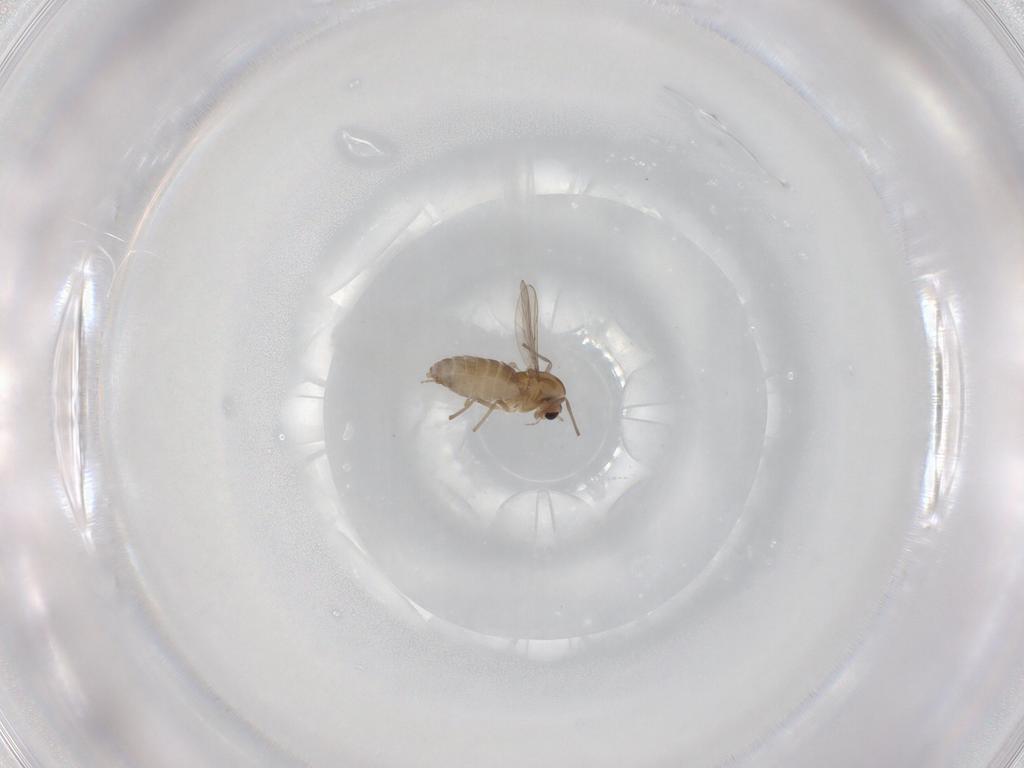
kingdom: Animalia
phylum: Arthropoda
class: Insecta
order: Diptera
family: Chironomidae
